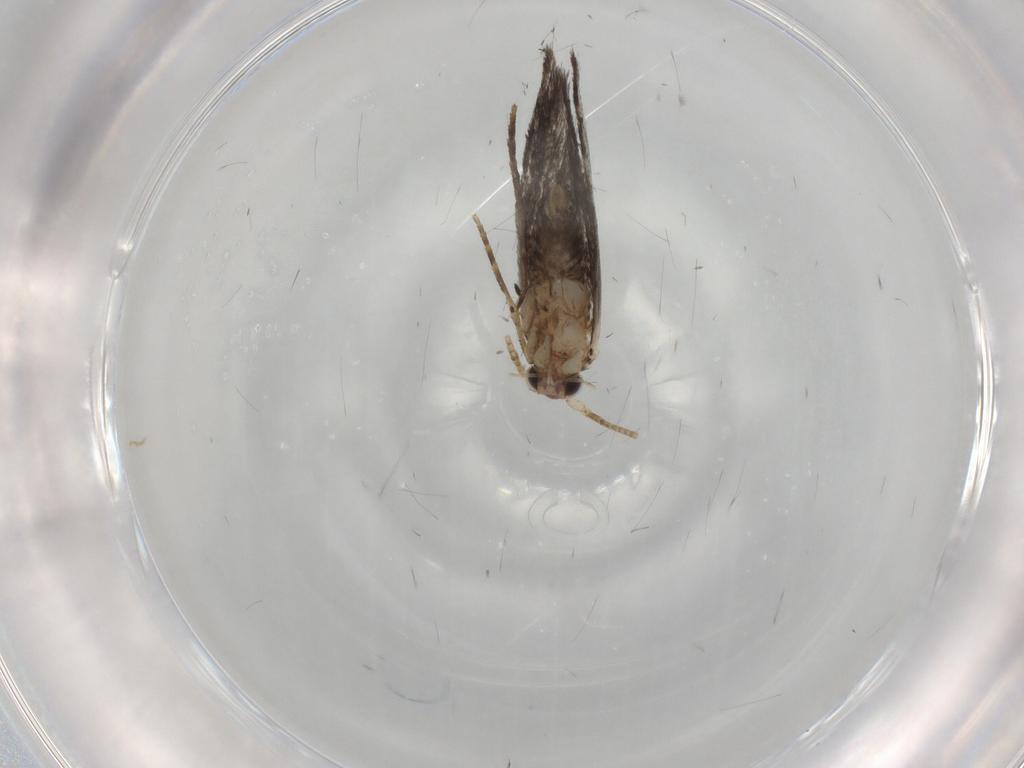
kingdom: Animalia
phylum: Arthropoda
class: Insecta
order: Lepidoptera
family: Tineidae
